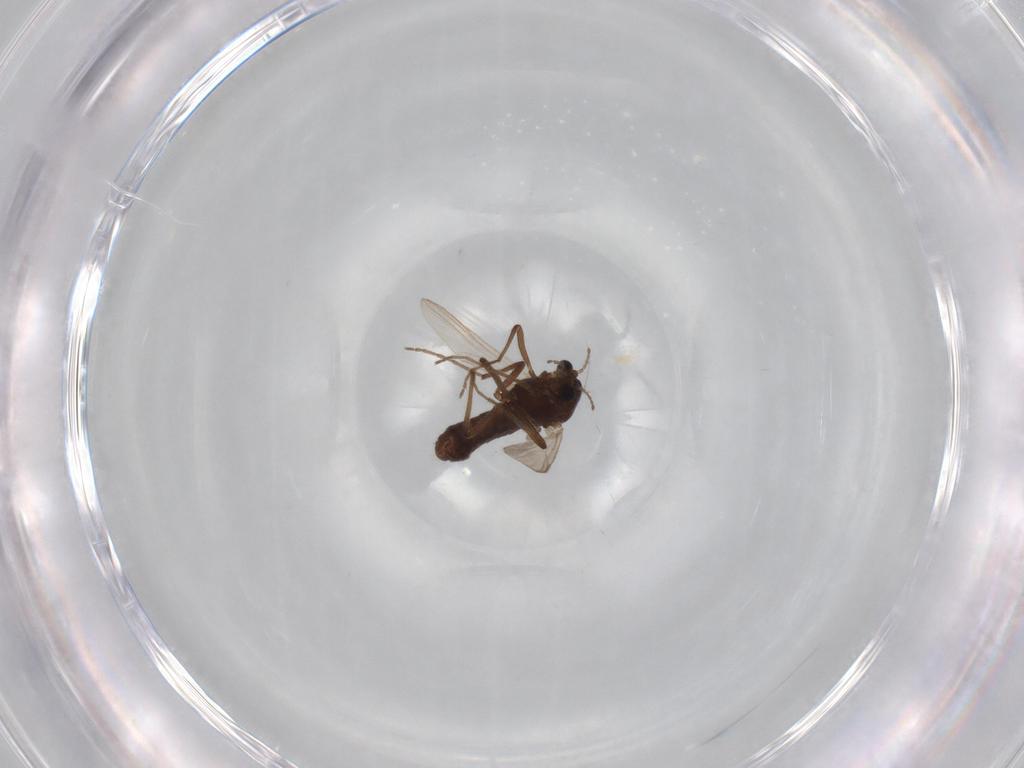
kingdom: Animalia
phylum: Arthropoda
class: Insecta
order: Diptera
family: Chironomidae
